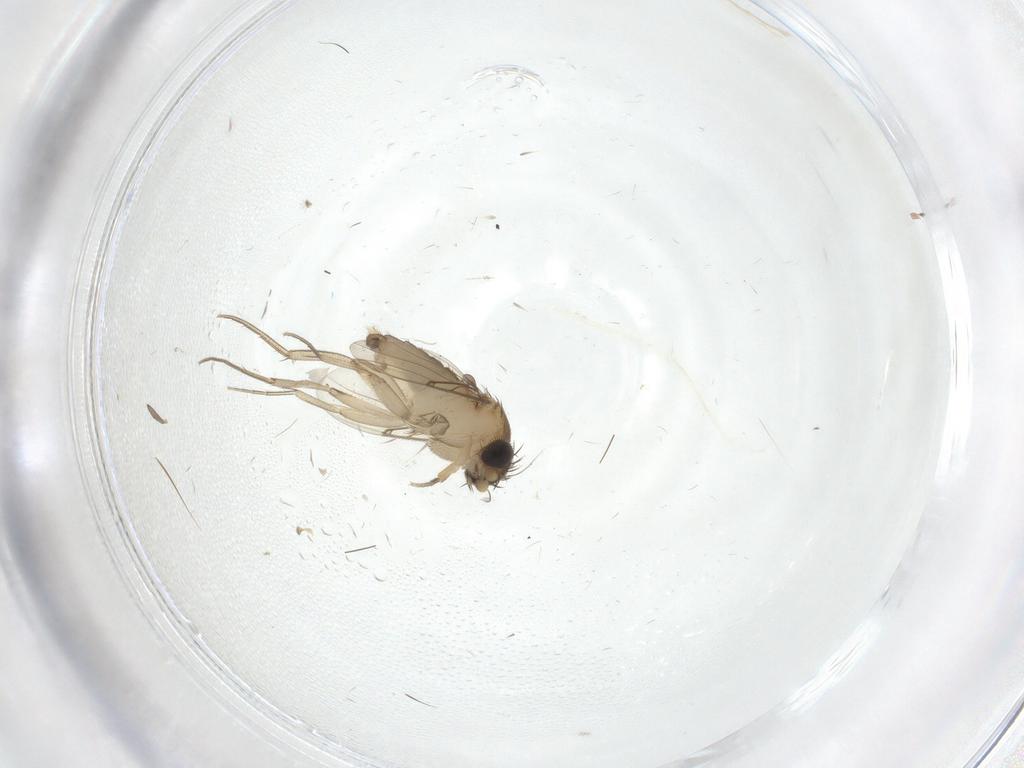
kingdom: Animalia
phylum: Arthropoda
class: Insecta
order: Diptera
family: Phoridae
